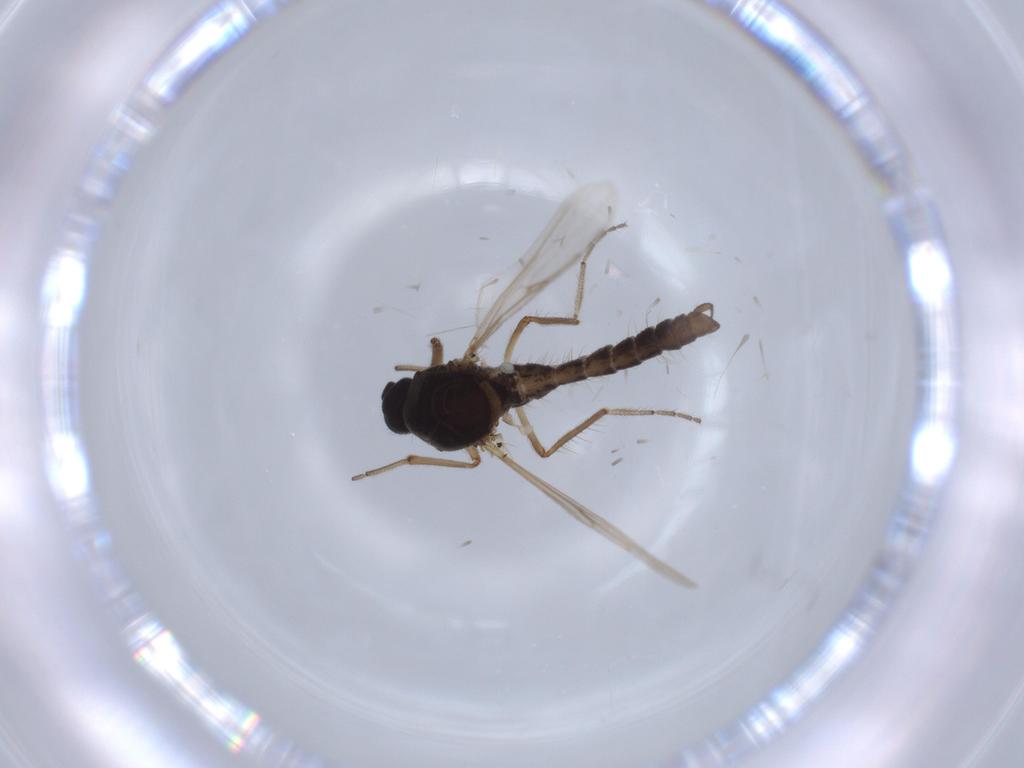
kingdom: Animalia
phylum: Arthropoda
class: Insecta
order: Diptera
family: Ceratopogonidae
